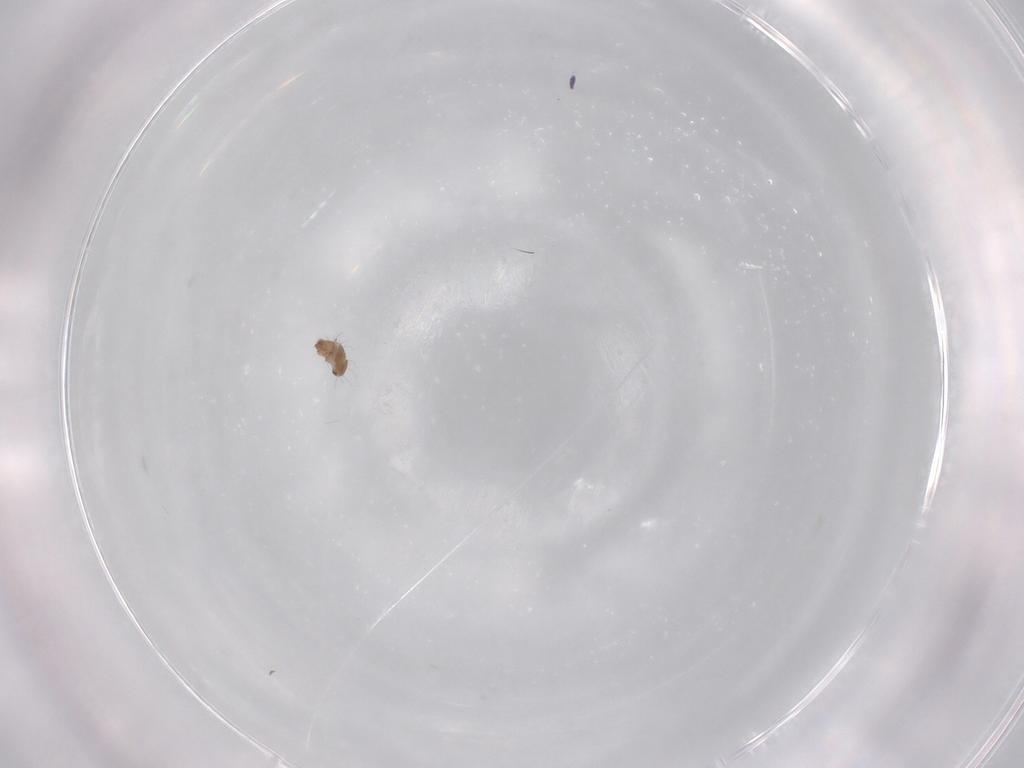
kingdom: Animalia
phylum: Arthropoda
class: Arachnida
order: Sarcoptiformes
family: Humerobatidae
